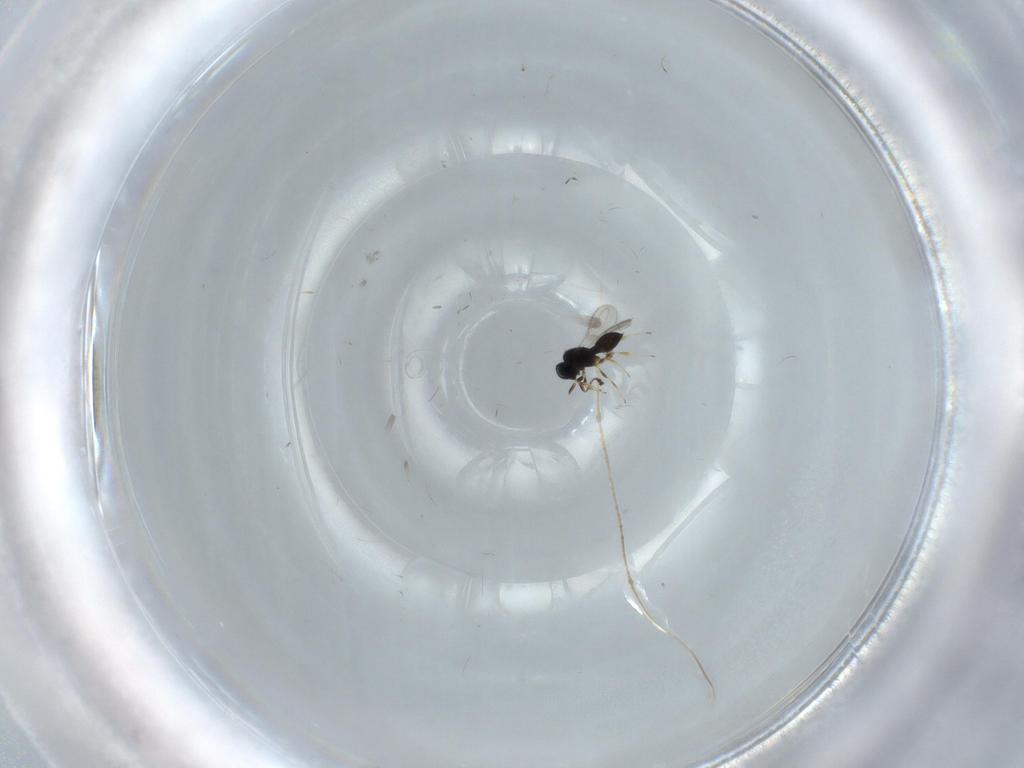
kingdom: Animalia
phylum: Arthropoda
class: Insecta
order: Hymenoptera
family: Scelionidae
